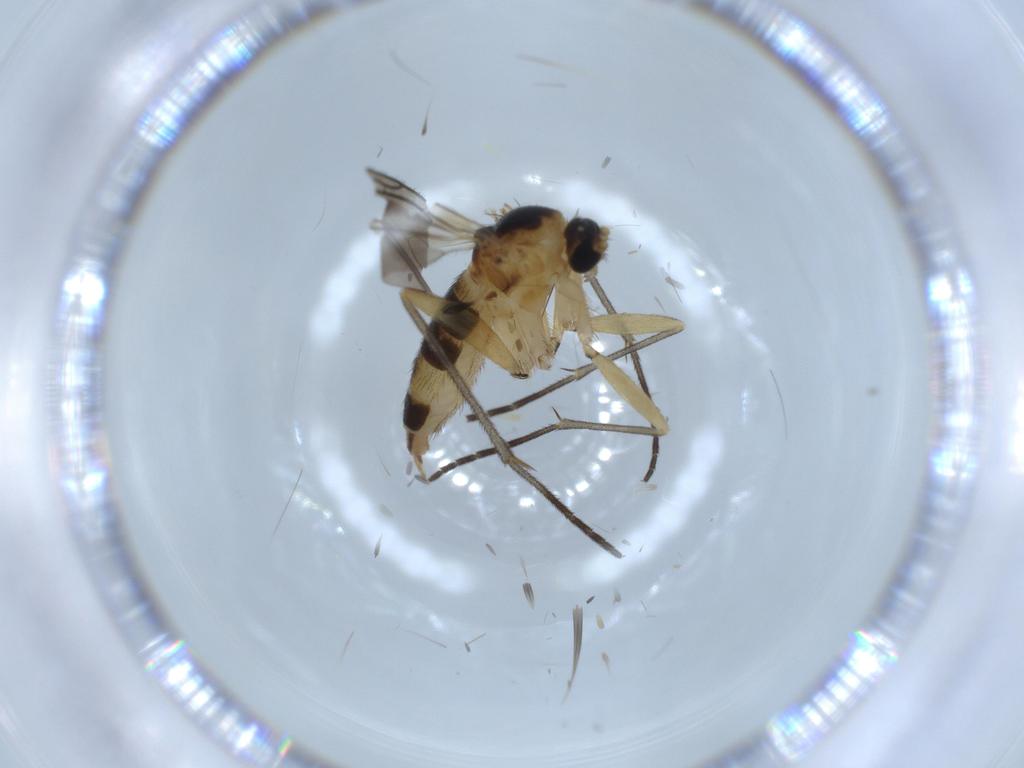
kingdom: Animalia
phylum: Arthropoda
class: Insecta
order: Diptera
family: Sciaridae
